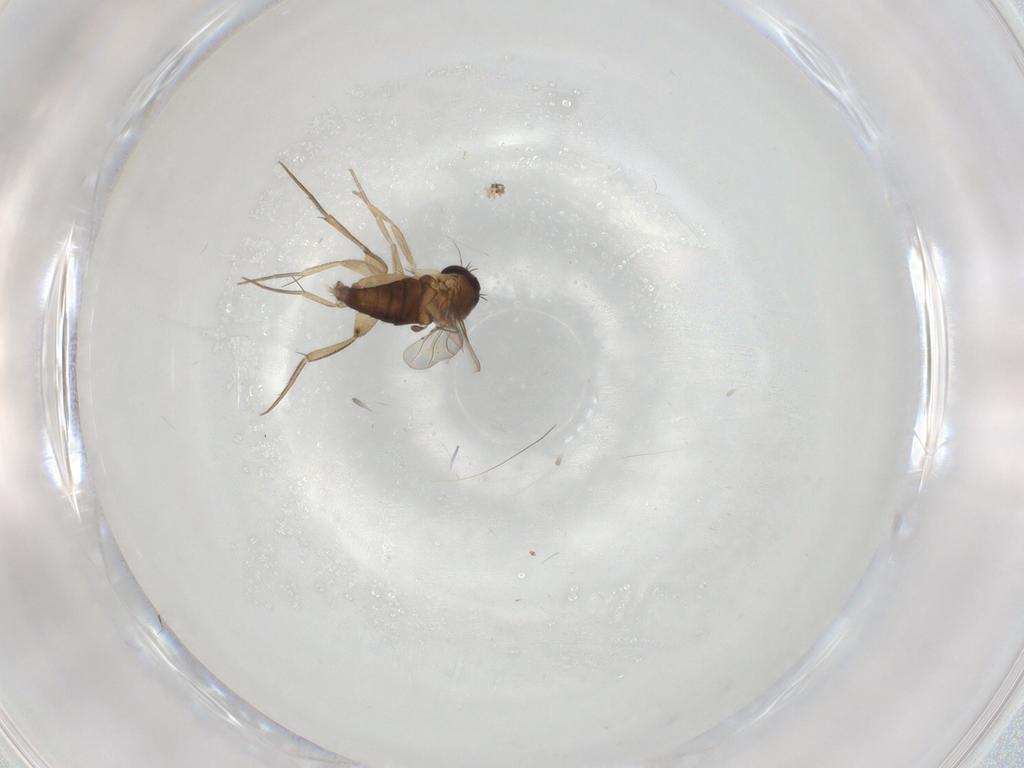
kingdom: Animalia
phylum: Arthropoda
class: Insecta
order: Diptera
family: Phoridae
